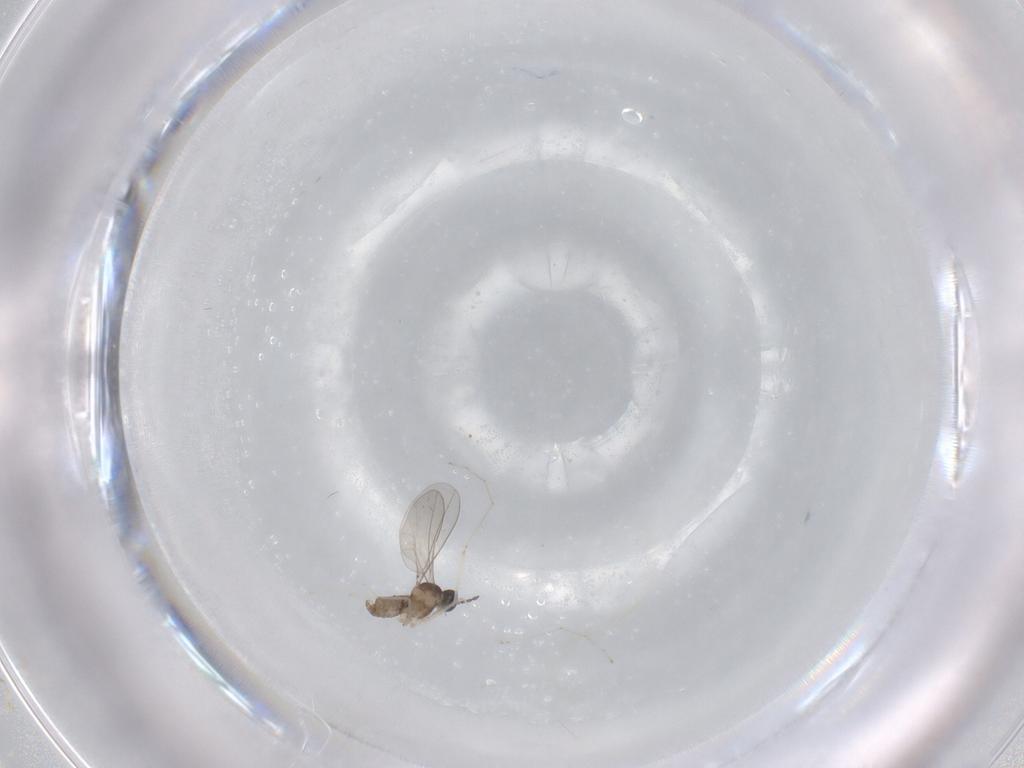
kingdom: Animalia
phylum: Arthropoda
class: Insecta
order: Diptera
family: Cecidomyiidae
